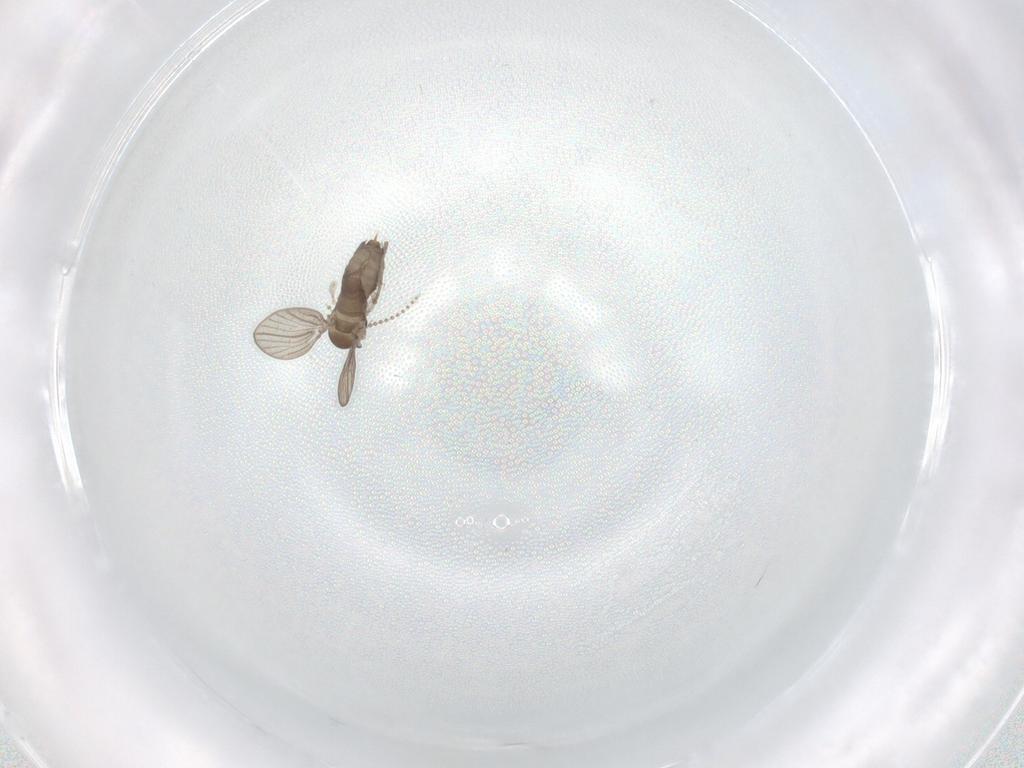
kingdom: Animalia
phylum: Arthropoda
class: Insecta
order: Diptera
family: Psychodidae
